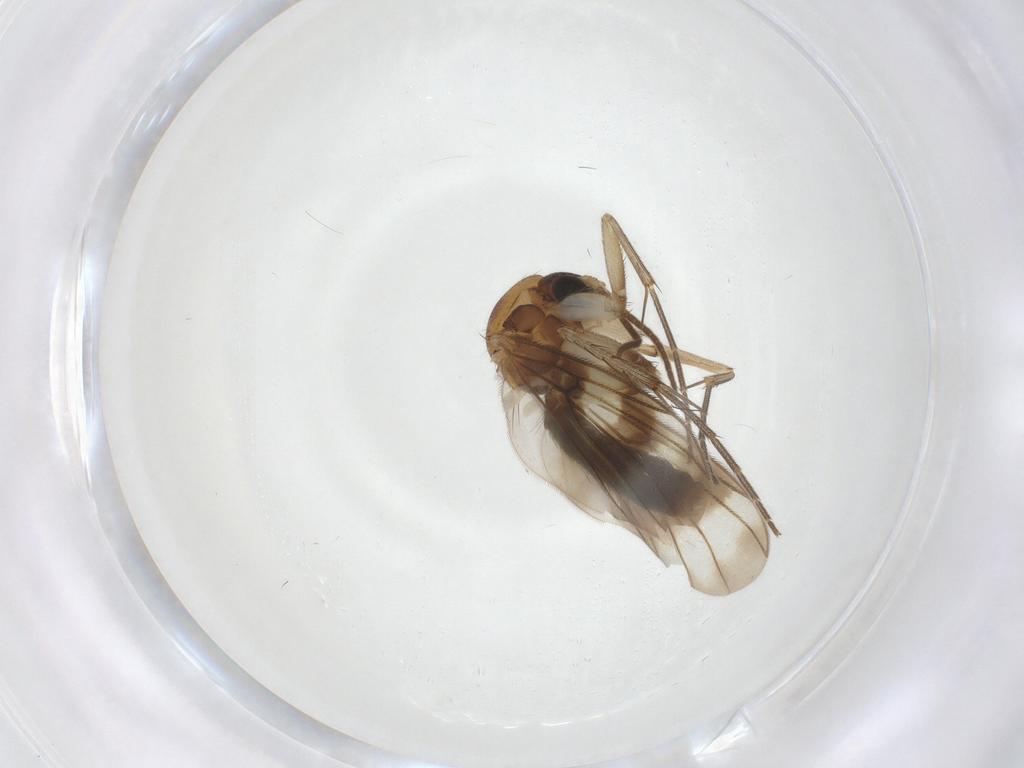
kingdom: Animalia
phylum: Arthropoda
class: Insecta
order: Diptera
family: Mycetophilidae
